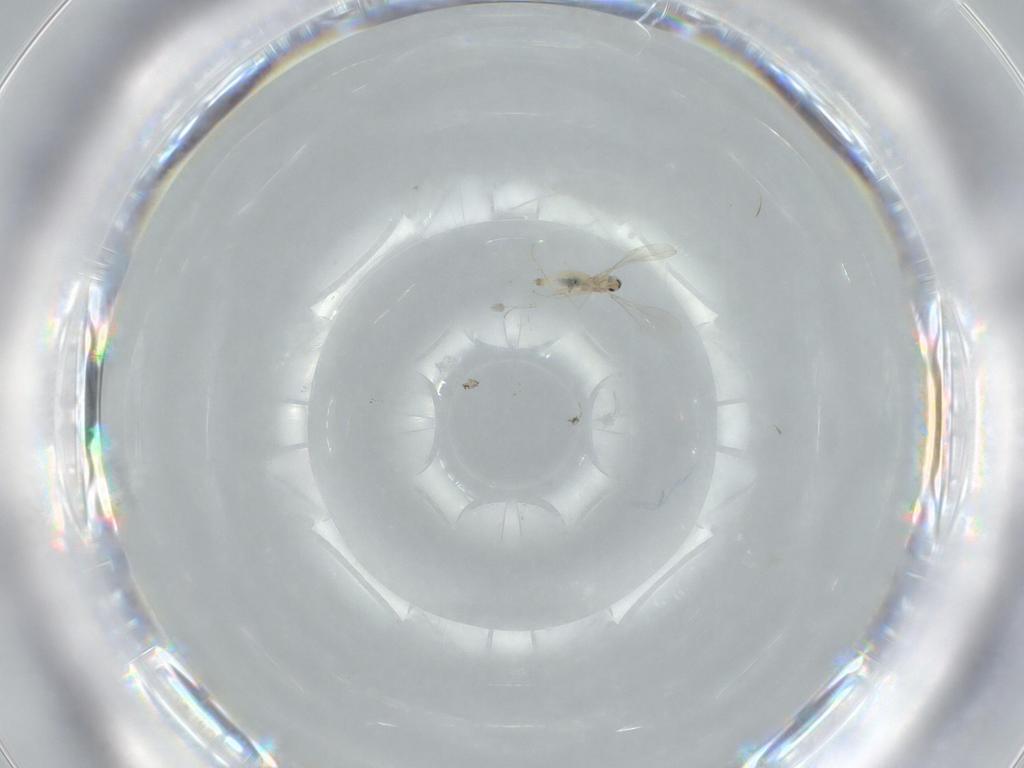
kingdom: Animalia
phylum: Arthropoda
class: Insecta
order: Diptera
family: Cecidomyiidae
